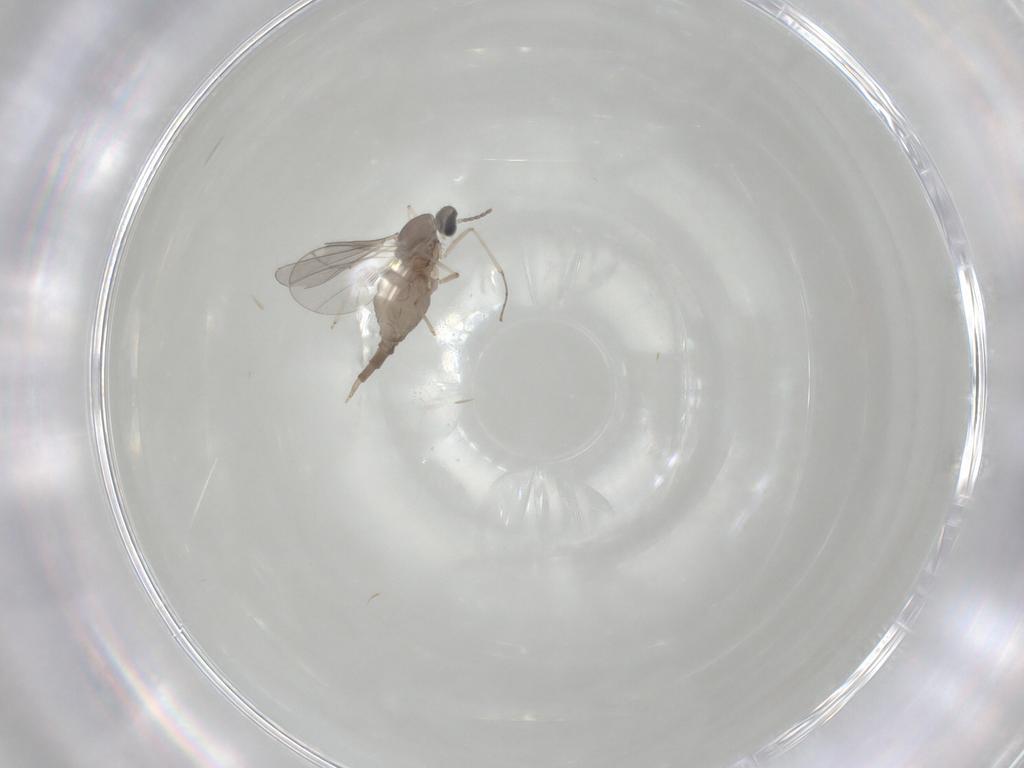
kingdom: Animalia
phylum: Arthropoda
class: Insecta
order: Diptera
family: Cecidomyiidae
